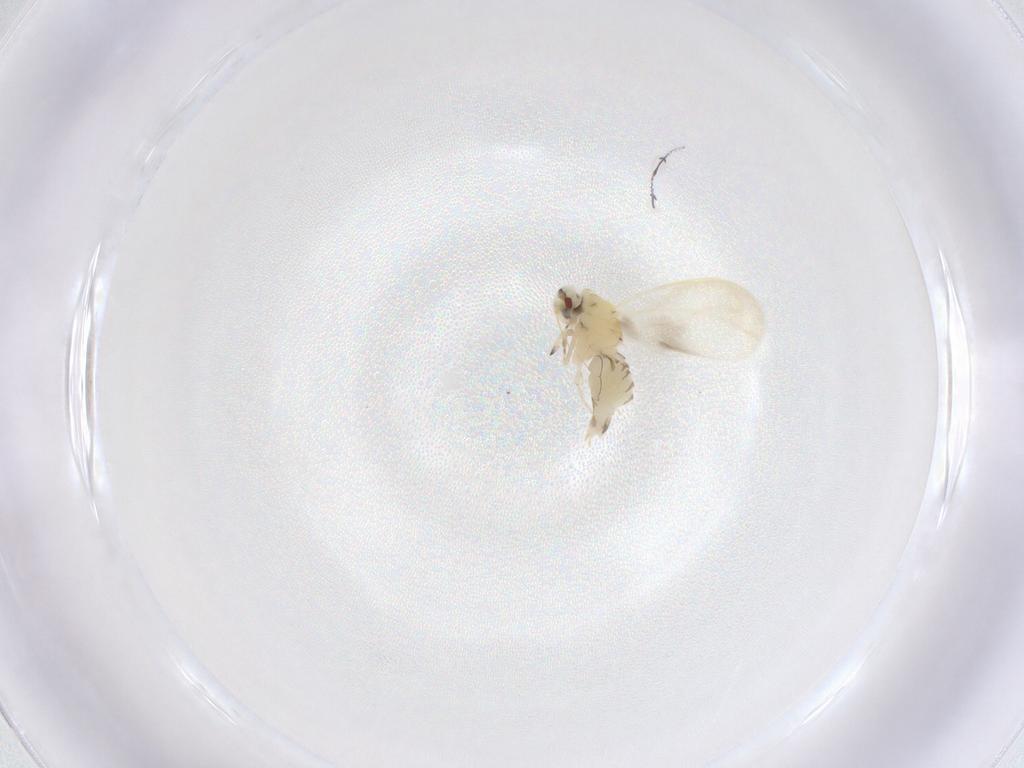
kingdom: Animalia
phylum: Arthropoda
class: Insecta
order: Hemiptera
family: Aleyrodidae
